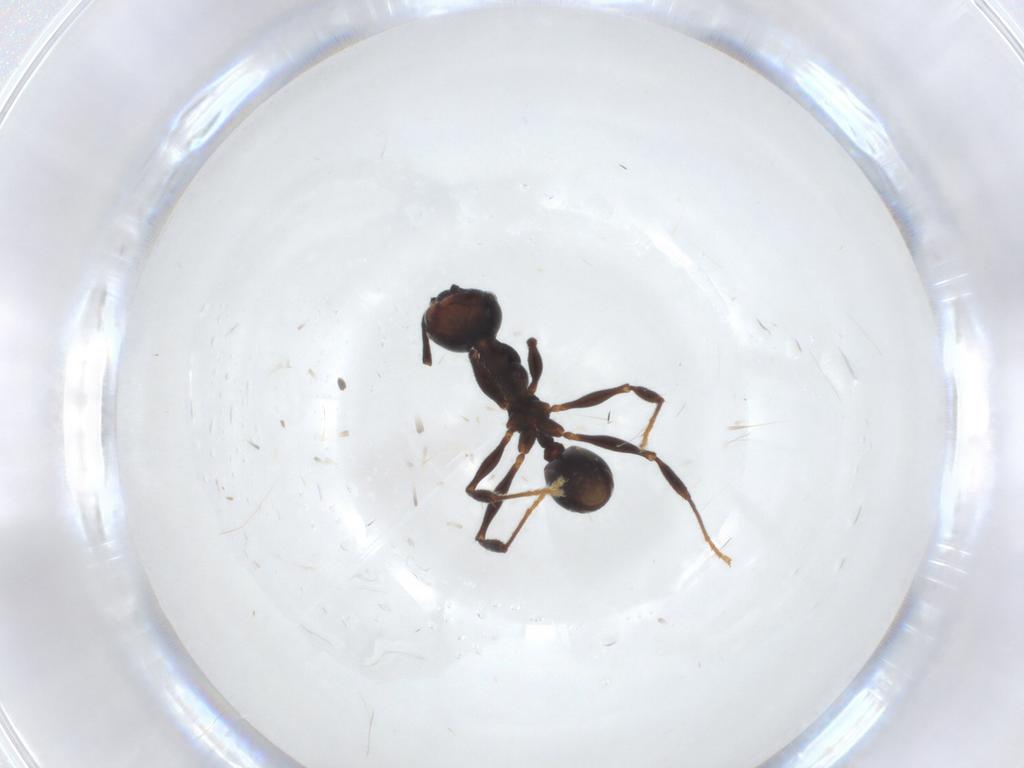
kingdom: Animalia
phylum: Arthropoda
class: Insecta
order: Hymenoptera
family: Formicidae
